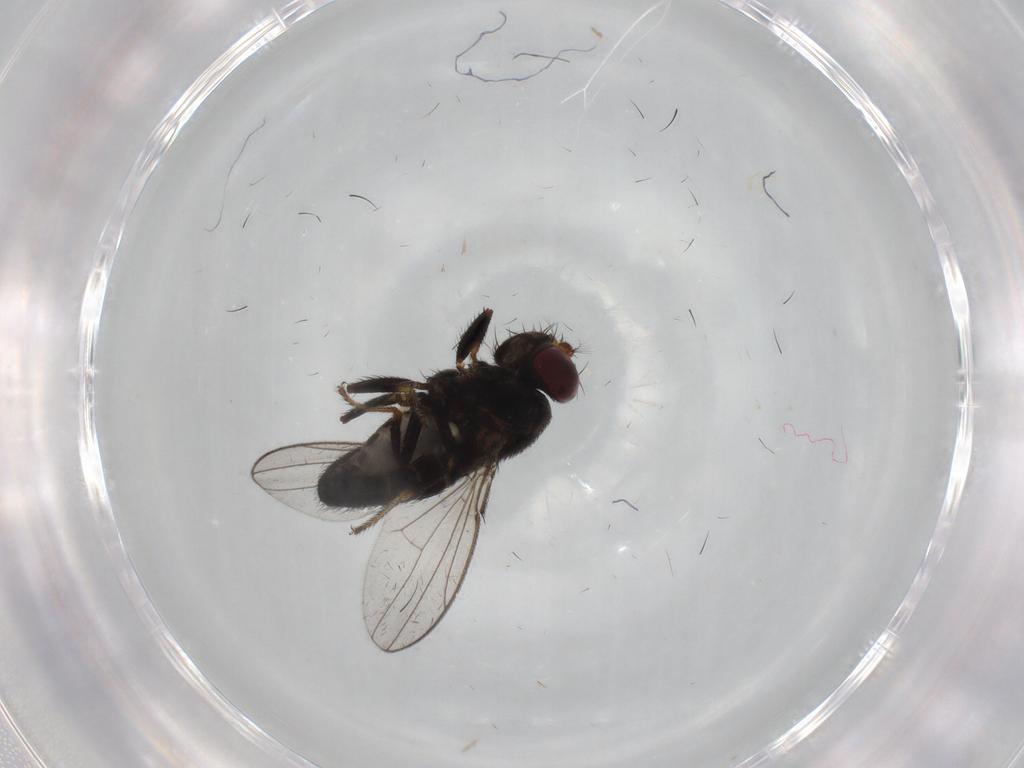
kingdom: Animalia
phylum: Arthropoda
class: Insecta
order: Diptera
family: Ephydridae
